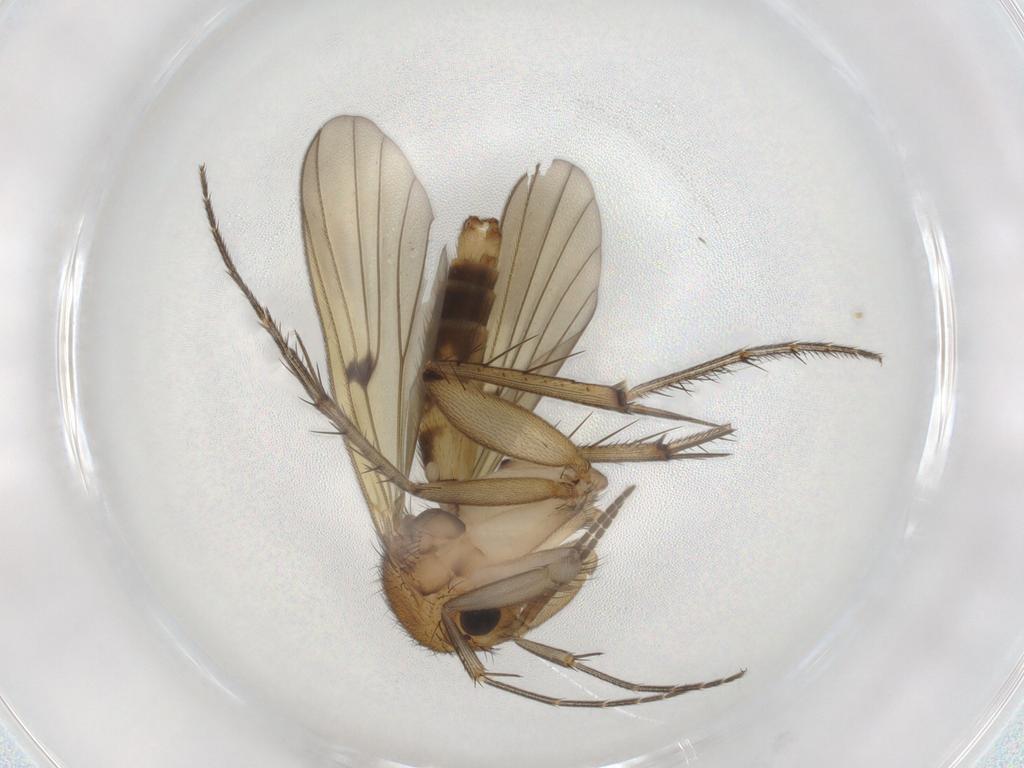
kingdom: Animalia
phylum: Arthropoda
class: Insecta
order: Diptera
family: Mycetophilidae
